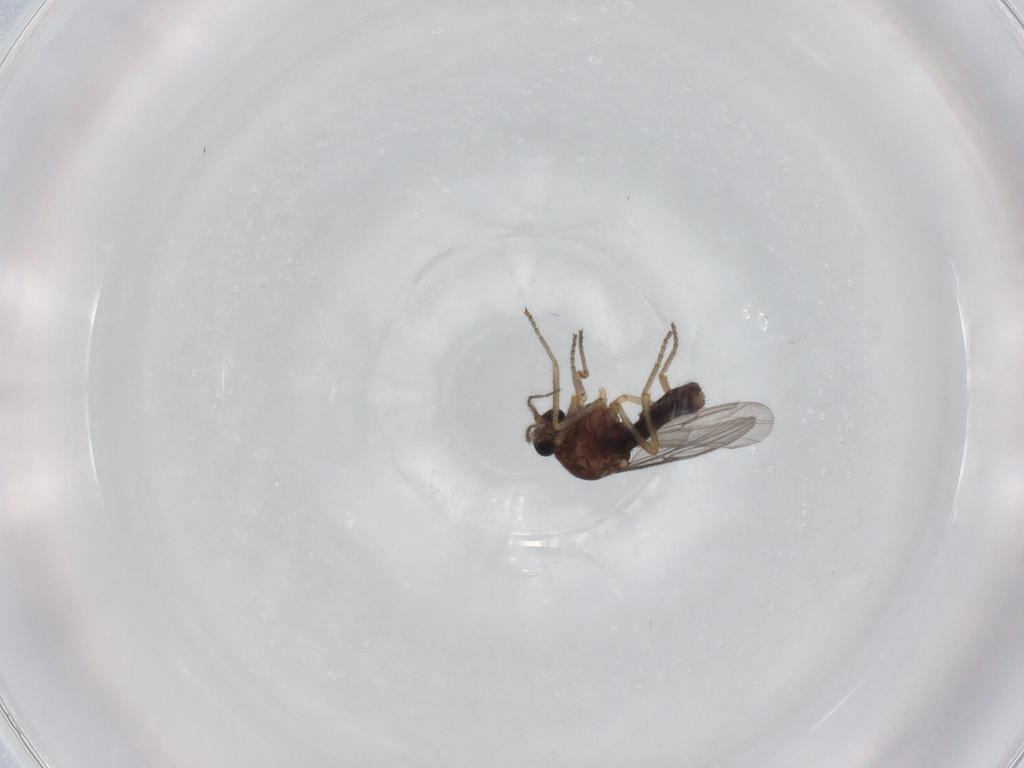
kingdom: Animalia
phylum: Arthropoda
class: Insecta
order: Diptera
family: Ceratopogonidae
